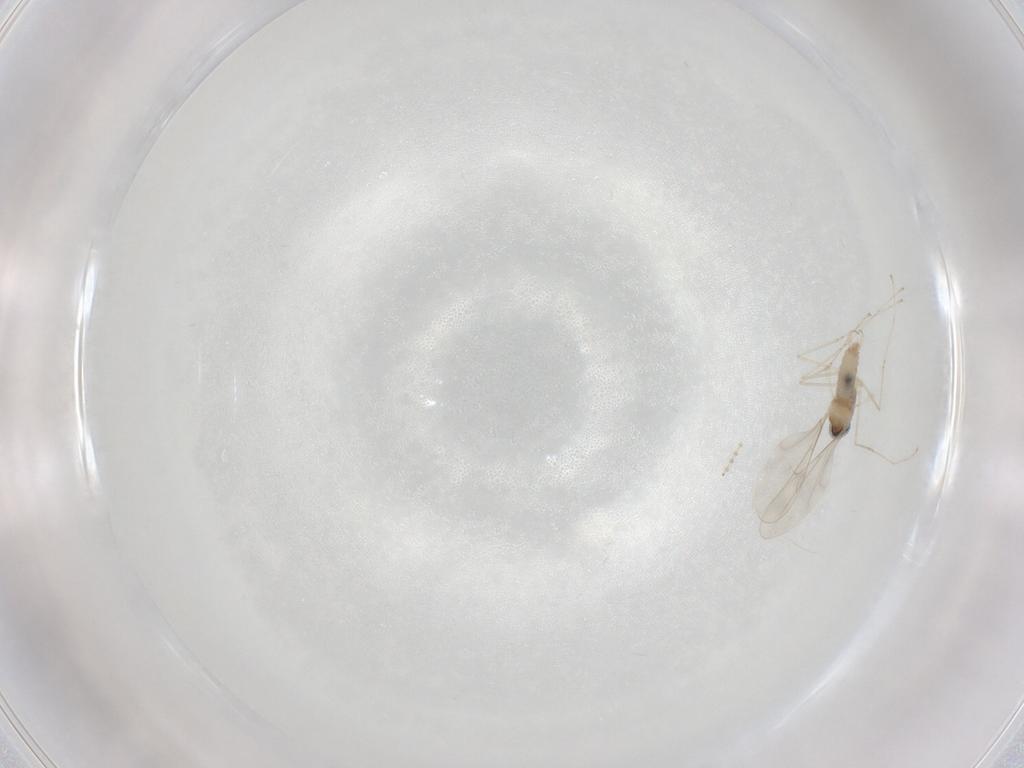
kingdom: Animalia
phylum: Arthropoda
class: Insecta
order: Diptera
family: Cecidomyiidae
